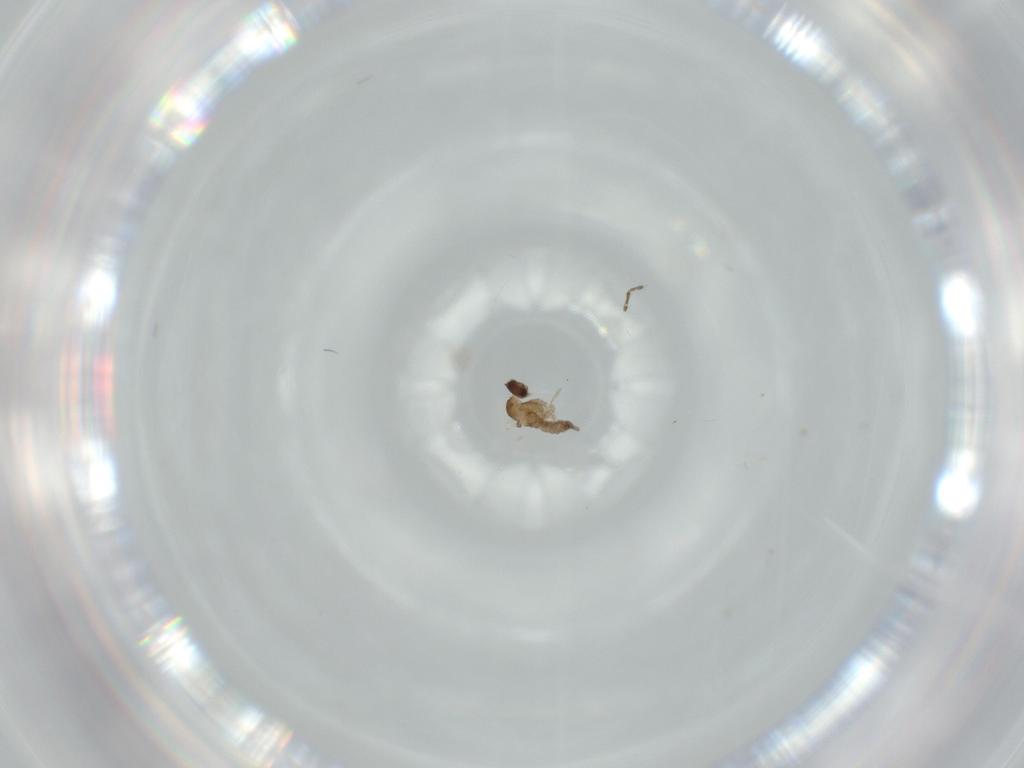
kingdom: Animalia
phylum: Arthropoda
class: Insecta
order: Diptera
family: Cecidomyiidae
